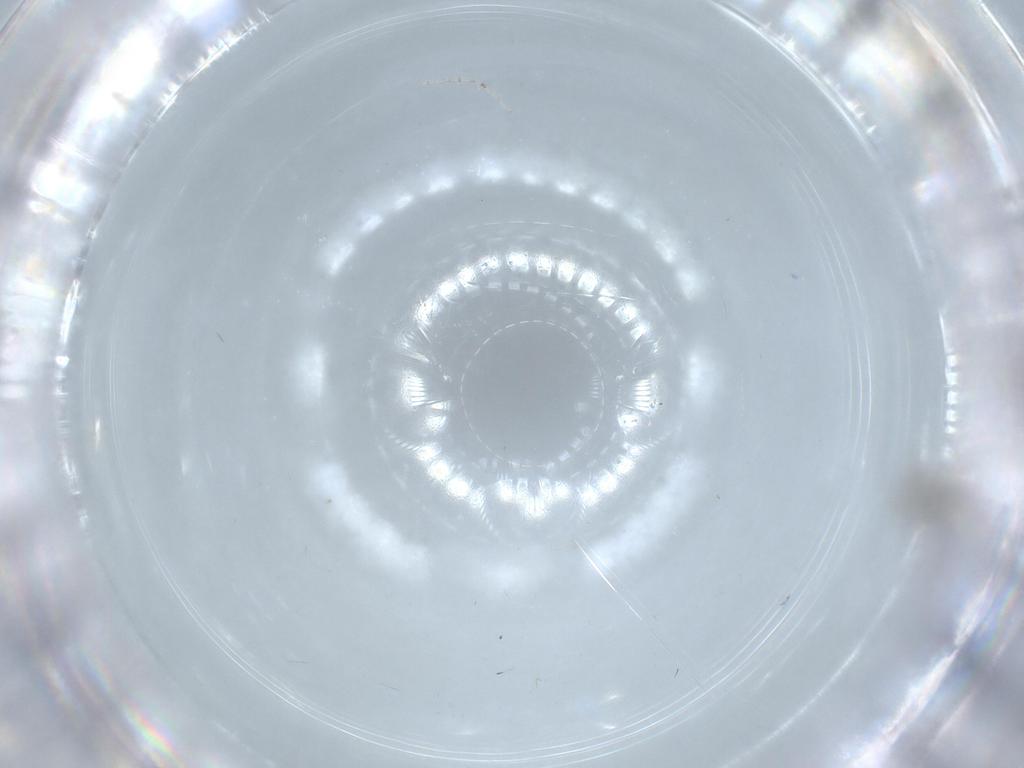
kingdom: Animalia
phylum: Arthropoda
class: Insecta
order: Diptera
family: Cecidomyiidae
